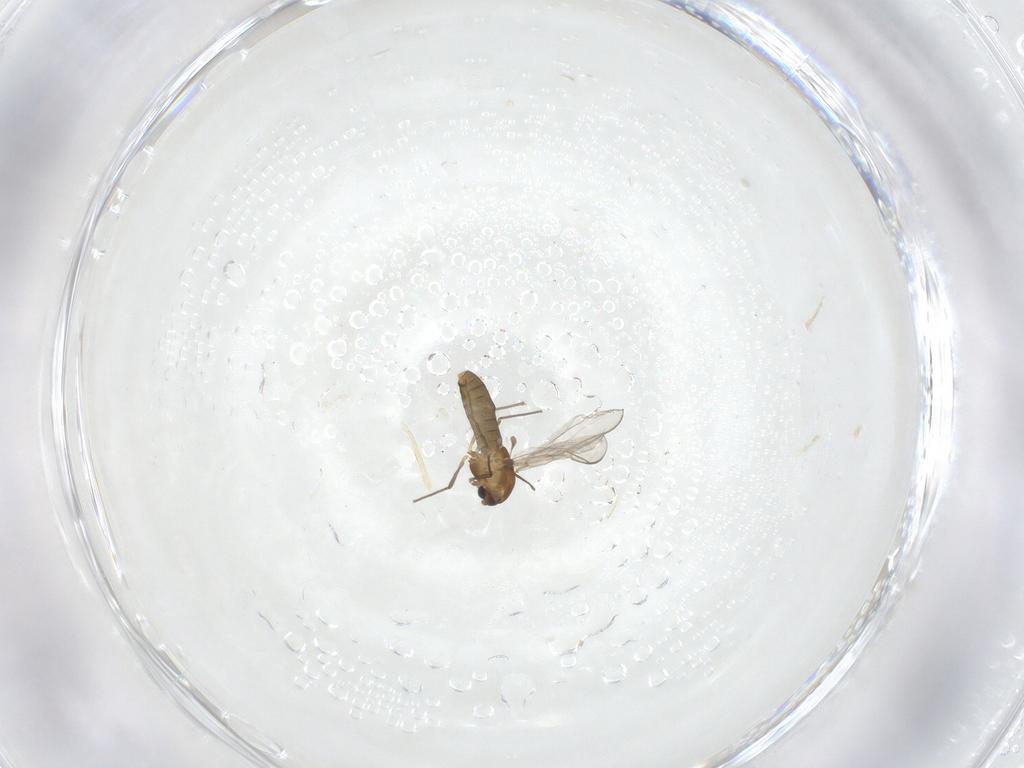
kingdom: Animalia
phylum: Arthropoda
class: Insecta
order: Diptera
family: Chironomidae
